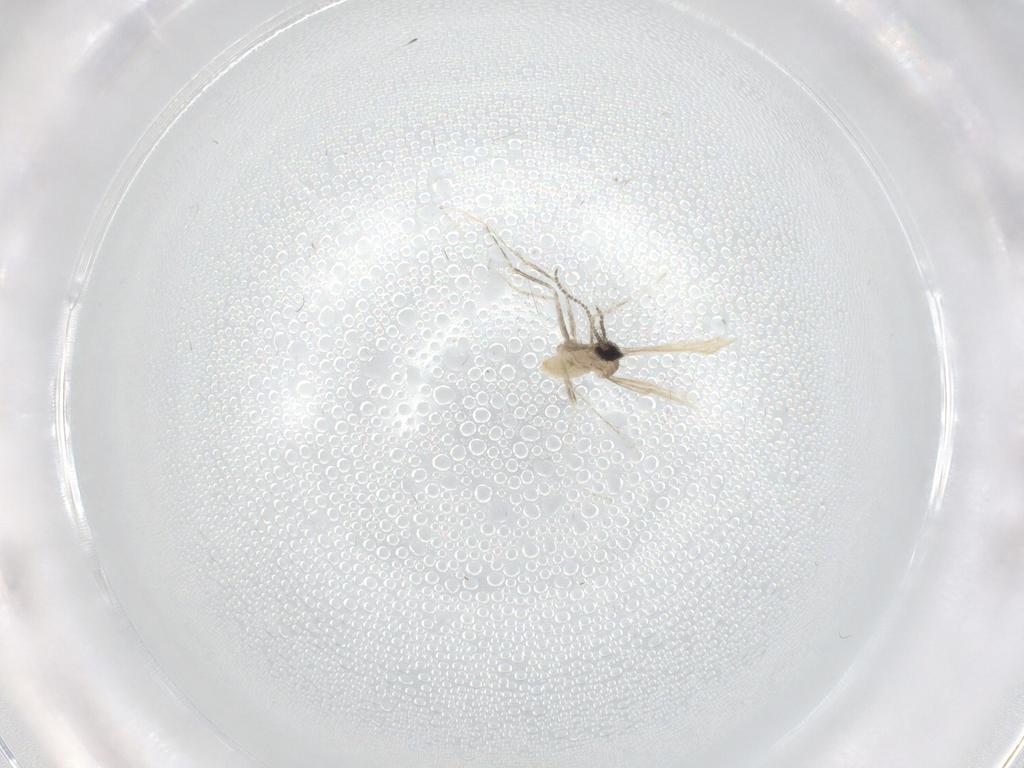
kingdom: Animalia
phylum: Arthropoda
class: Insecta
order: Diptera
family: Cecidomyiidae
